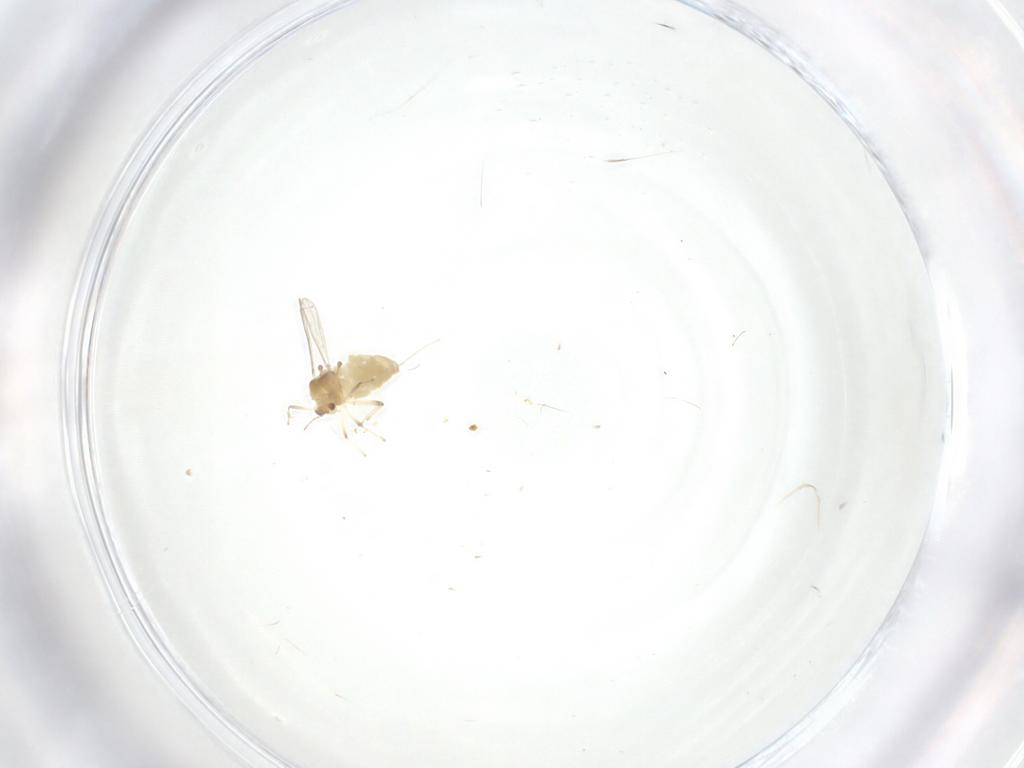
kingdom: Animalia
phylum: Arthropoda
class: Insecta
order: Diptera
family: Chironomidae
